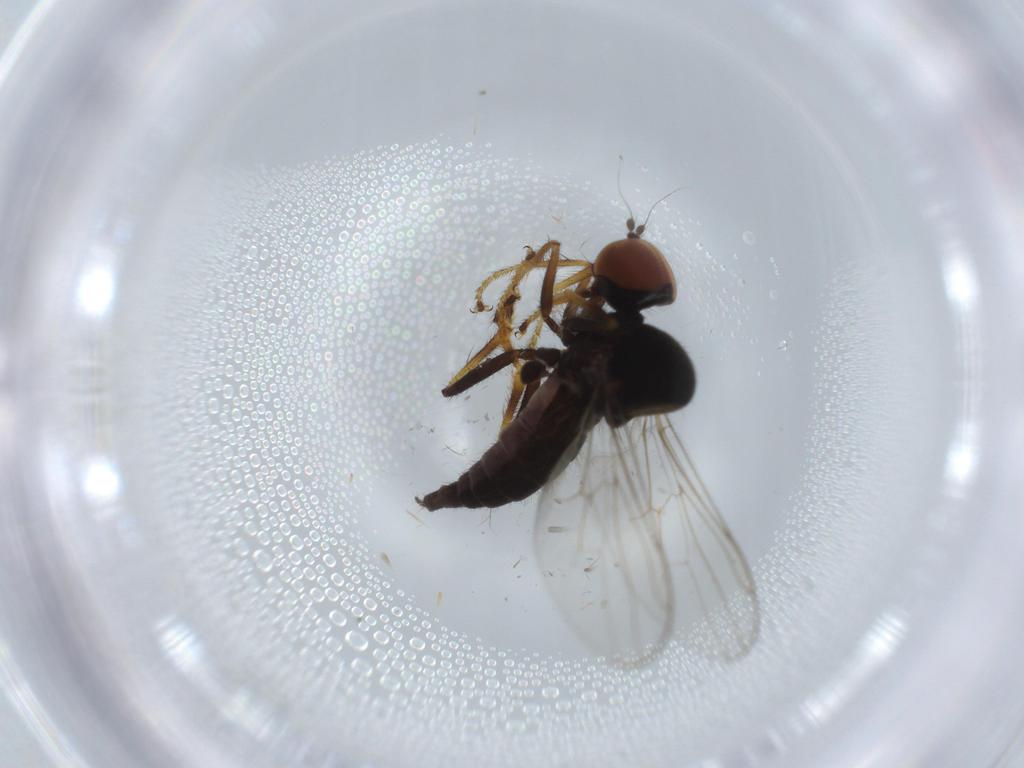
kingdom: Animalia
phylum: Arthropoda
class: Insecta
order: Diptera
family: Hybotidae
